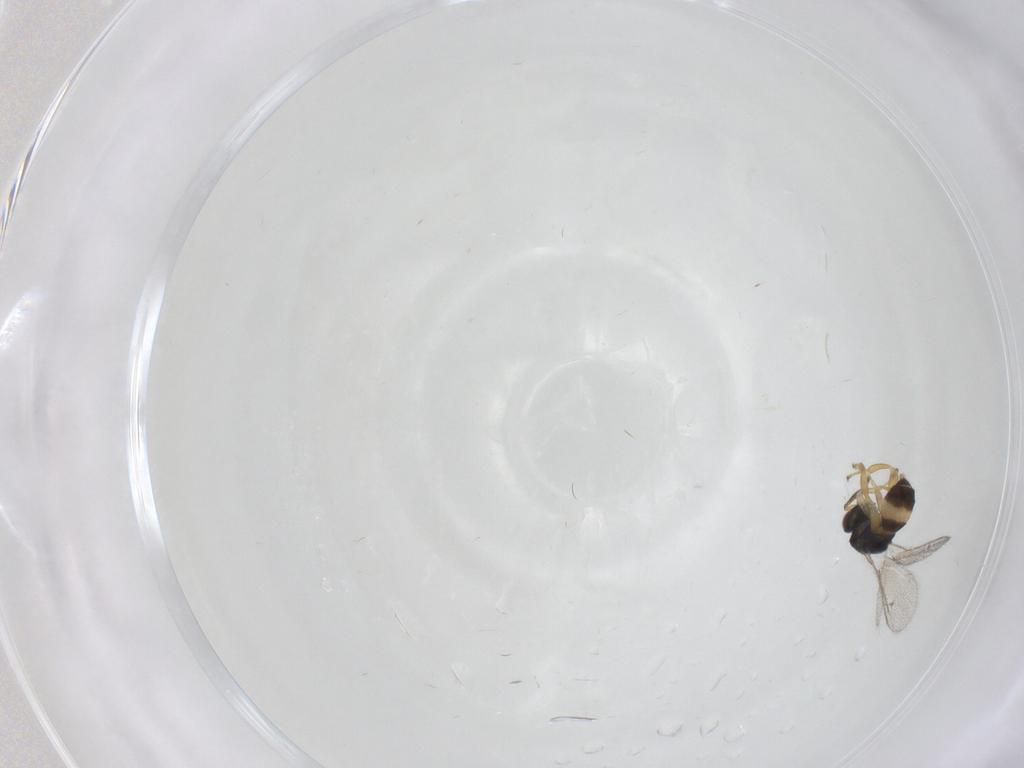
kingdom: Animalia
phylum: Arthropoda
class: Insecta
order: Hymenoptera
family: Torymidae
